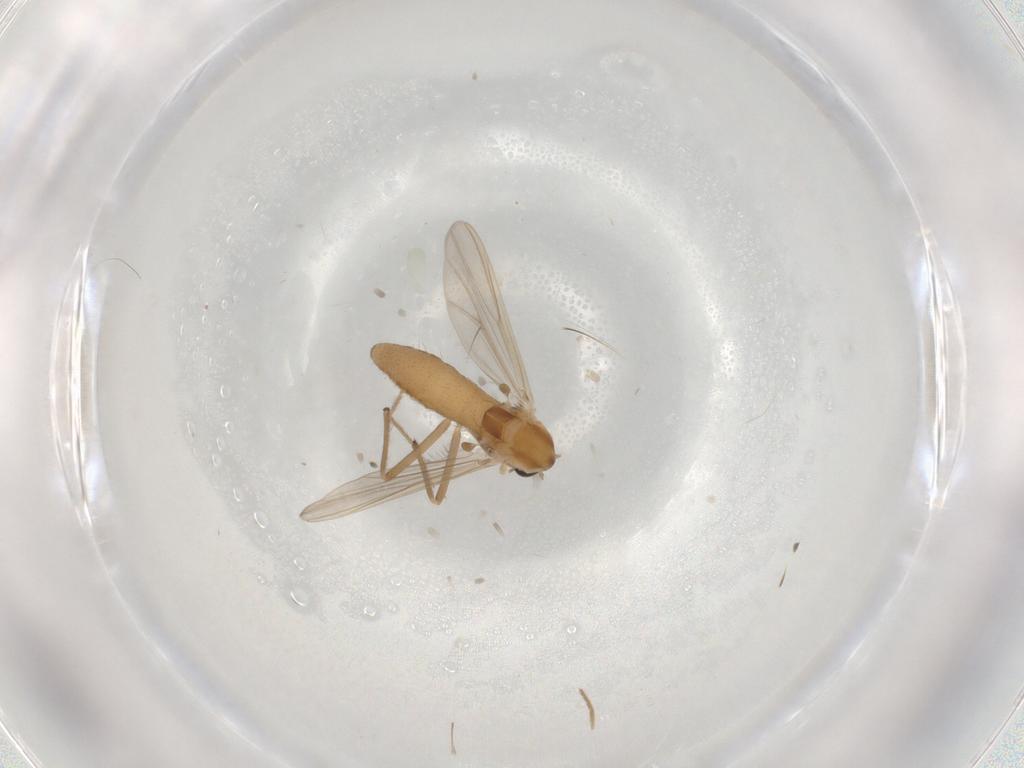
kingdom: Animalia
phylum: Arthropoda
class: Insecta
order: Diptera
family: Chironomidae
